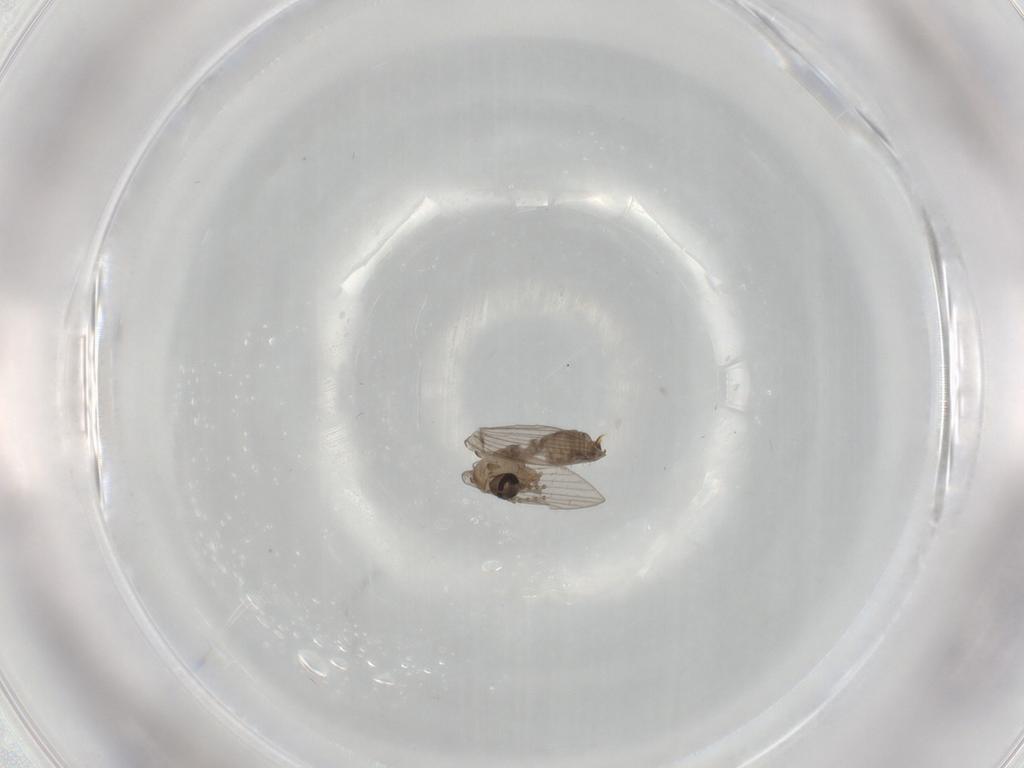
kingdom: Animalia
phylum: Arthropoda
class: Insecta
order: Diptera
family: Psychodidae
